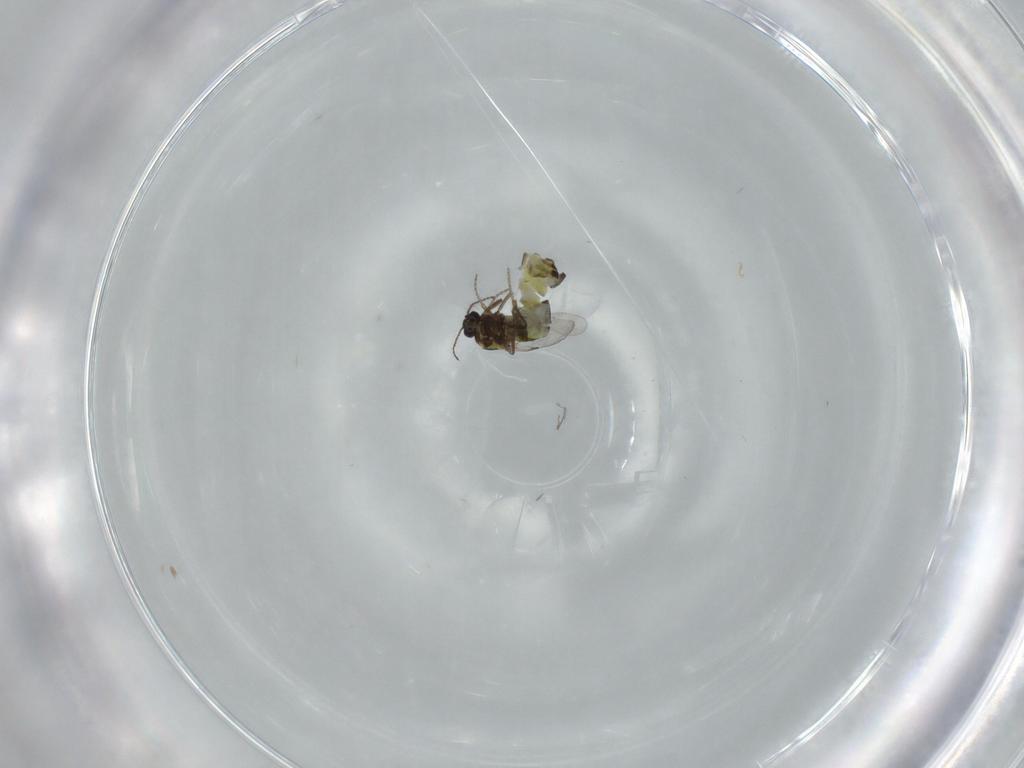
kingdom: Animalia
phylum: Arthropoda
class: Insecta
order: Diptera
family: Ceratopogonidae
